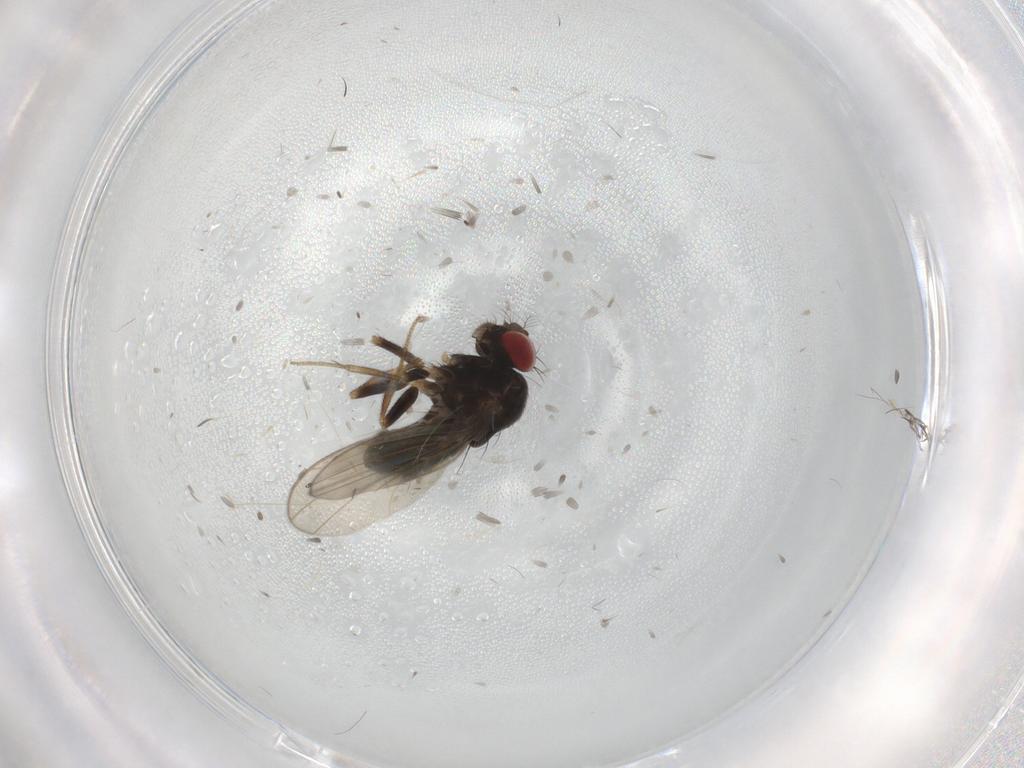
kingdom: Animalia
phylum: Arthropoda
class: Insecta
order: Diptera
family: Drosophilidae
